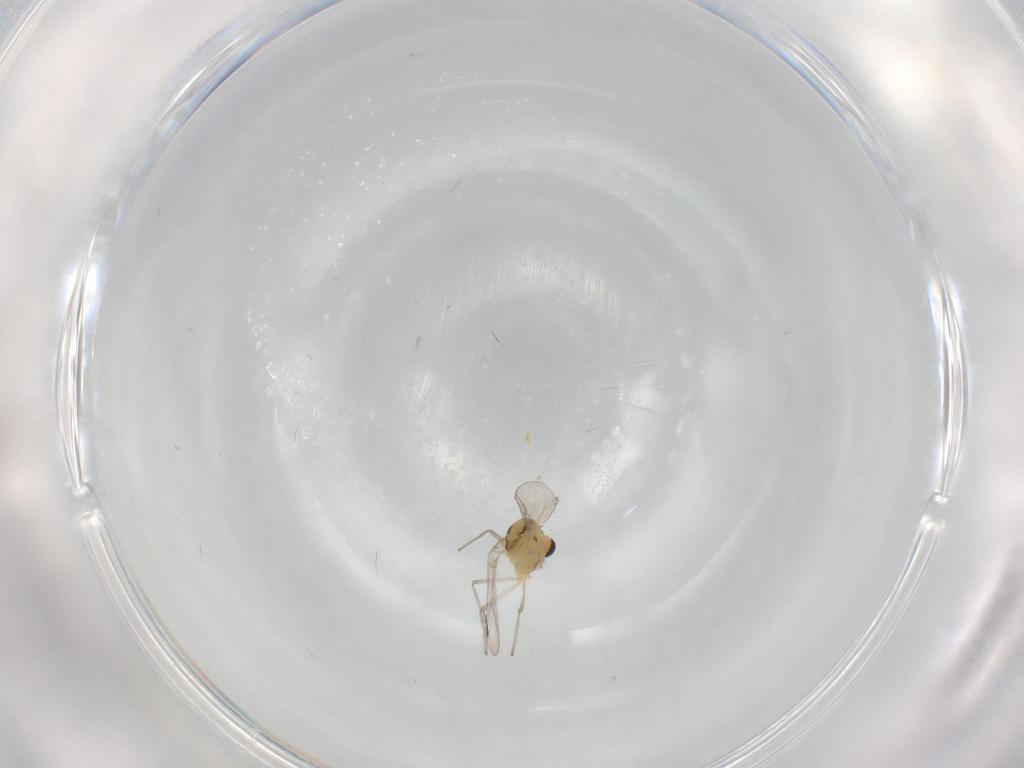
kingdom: Animalia
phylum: Arthropoda
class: Insecta
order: Diptera
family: Chironomidae
